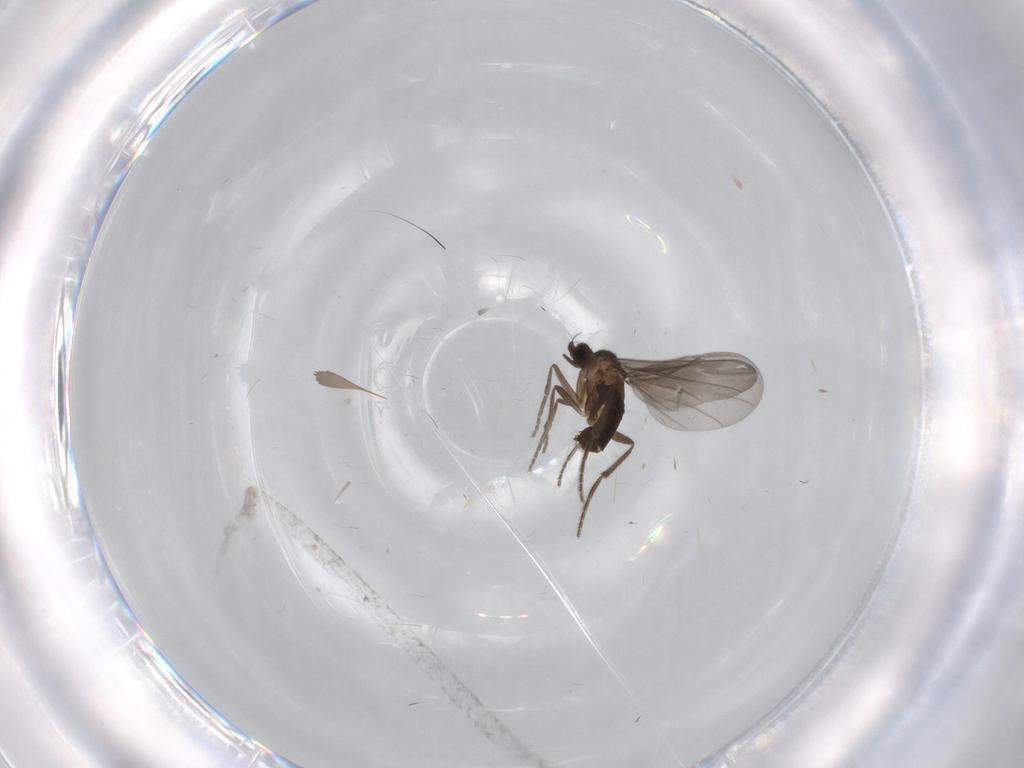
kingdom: Animalia
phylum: Arthropoda
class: Insecta
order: Diptera
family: Phoridae
